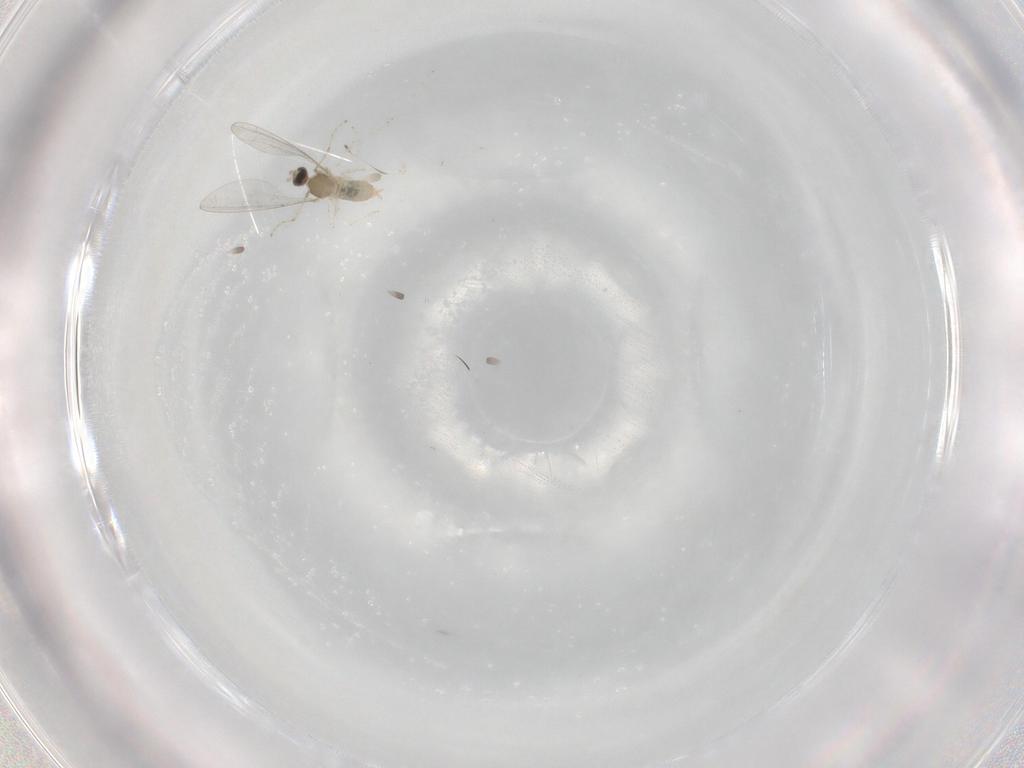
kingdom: Animalia
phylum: Arthropoda
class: Insecta
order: Diptera
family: Cecidomyiidae
